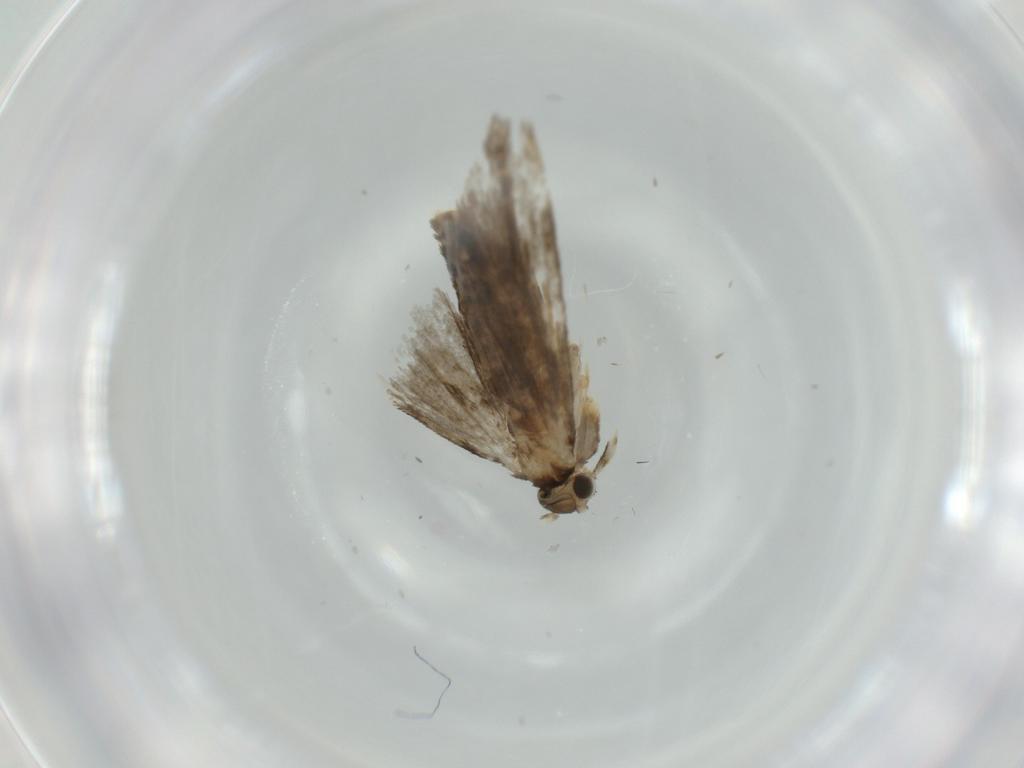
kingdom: Animalia
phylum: Arthropoda
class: Insecta
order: Lepidoptera
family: Tineidae
